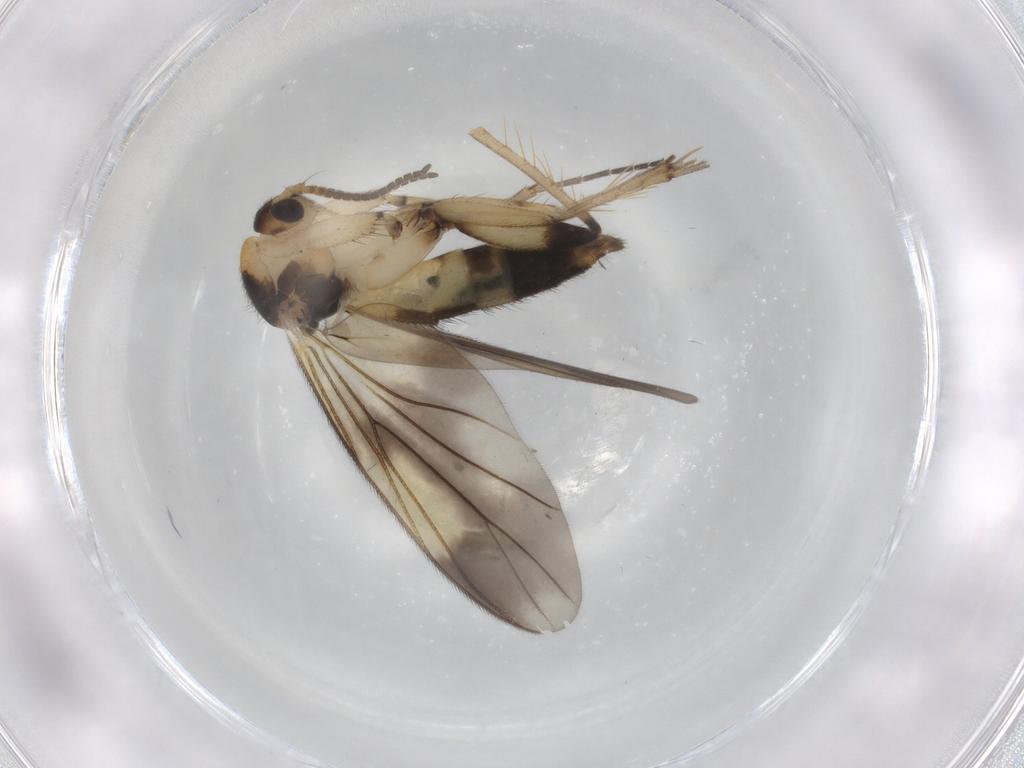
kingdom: Animalia
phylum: Arthropoda
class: Insecta
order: Diptera
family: Mycetophilidae
